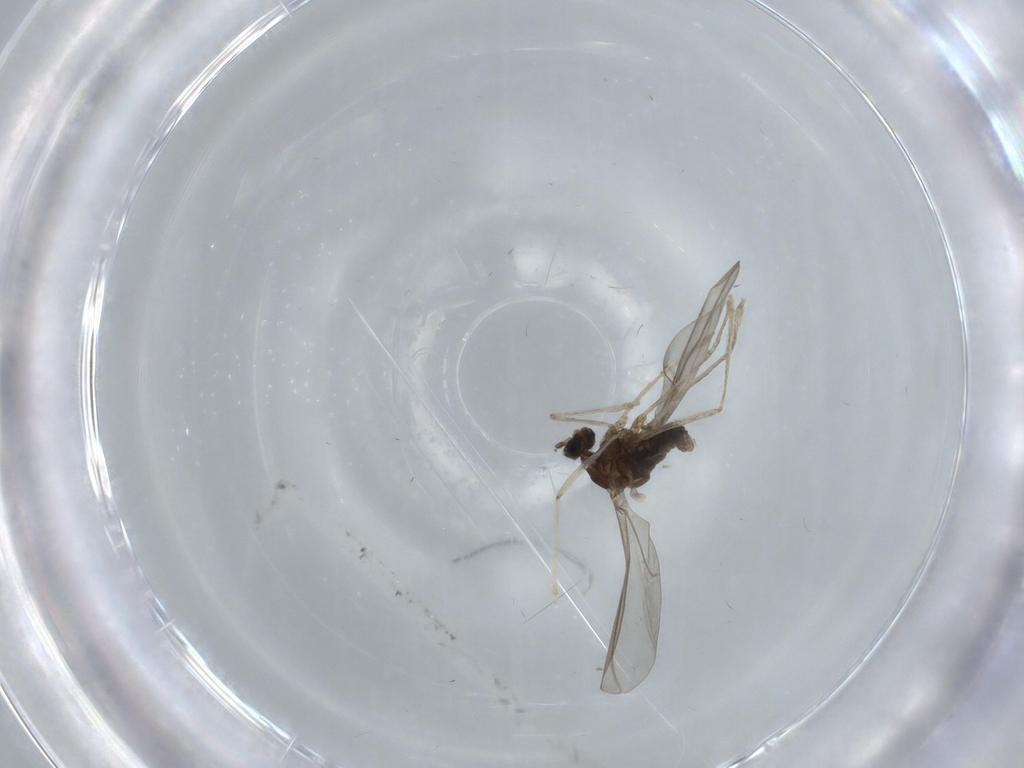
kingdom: Animalia
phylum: Arthropoda
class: Insecta
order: Diptera
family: Cecidomyiidae
